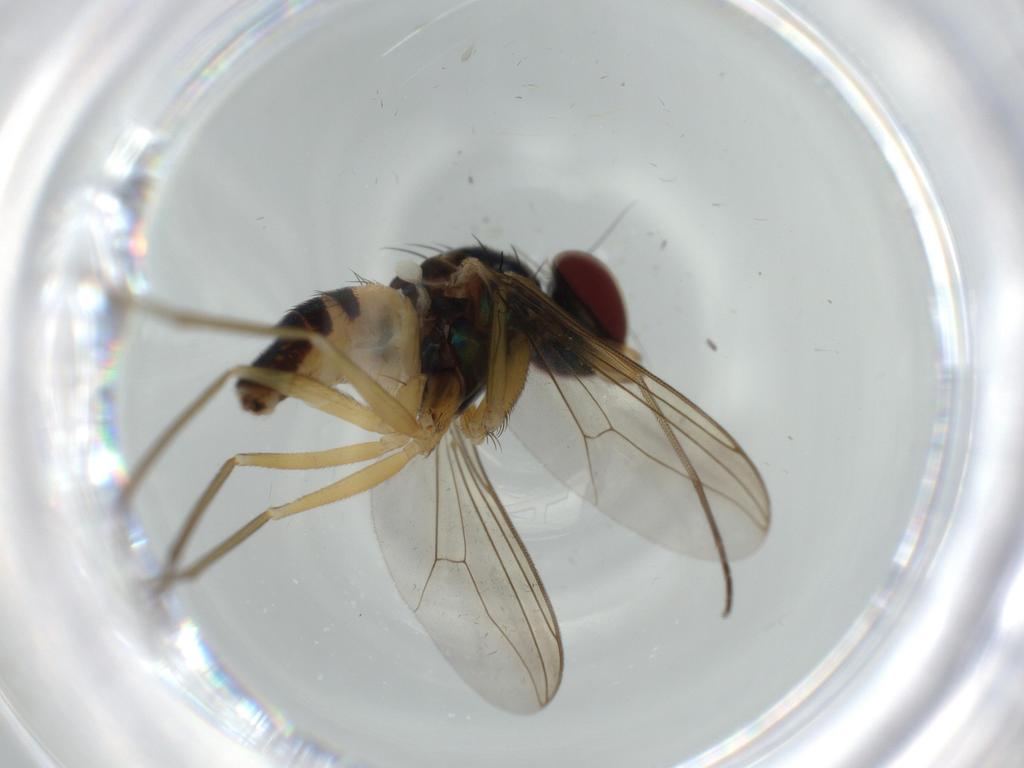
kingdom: Animalia
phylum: Arthropoda
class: Insecta
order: Diptera
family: Dolichopodidae
